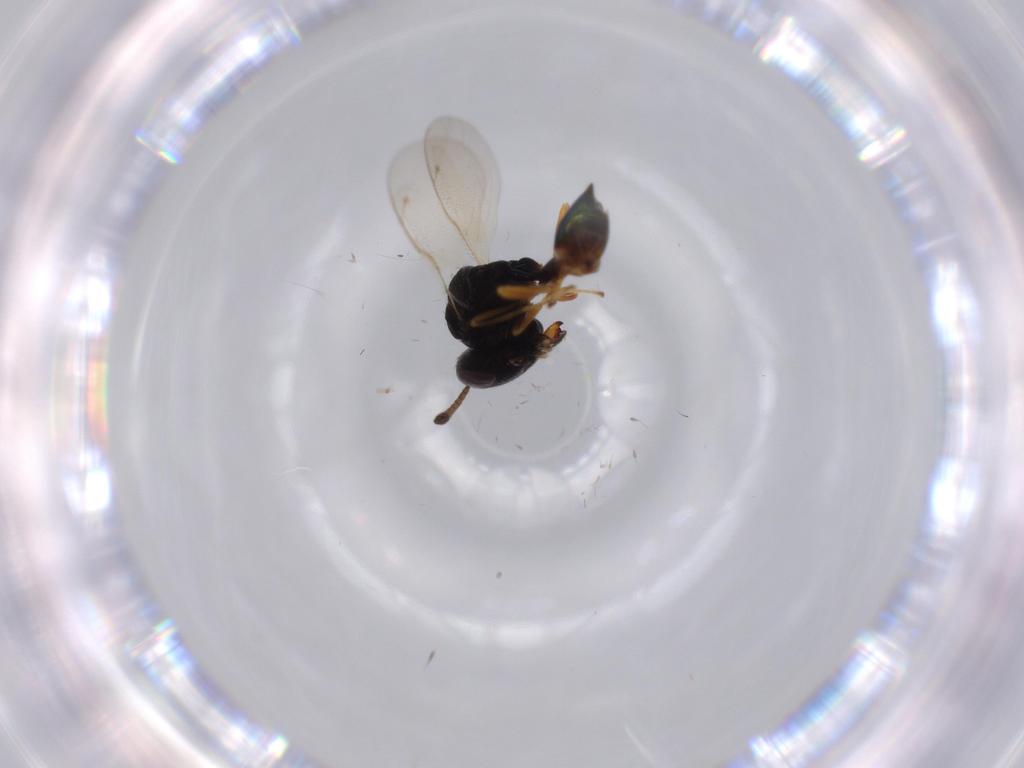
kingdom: Animalia
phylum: Arthropoda
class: Insecta
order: Hymenoptera
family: Pteromalidae
